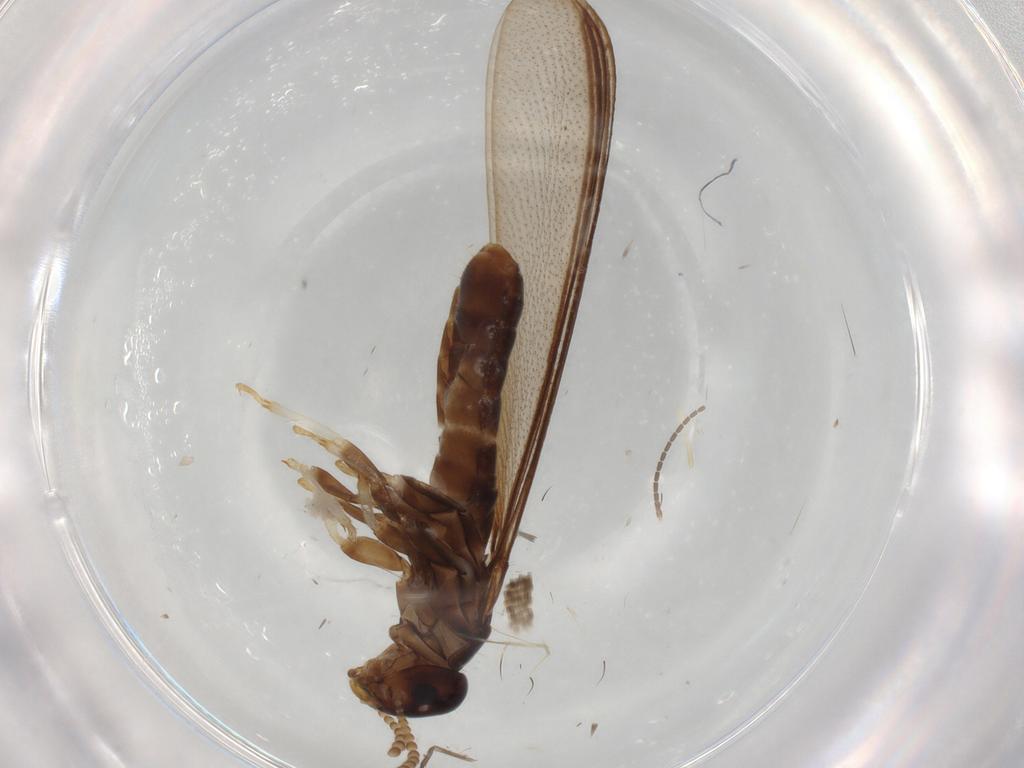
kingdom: Animalia
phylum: Arthropoda
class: Insecta
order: Blattodea
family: Kalotermitidae
